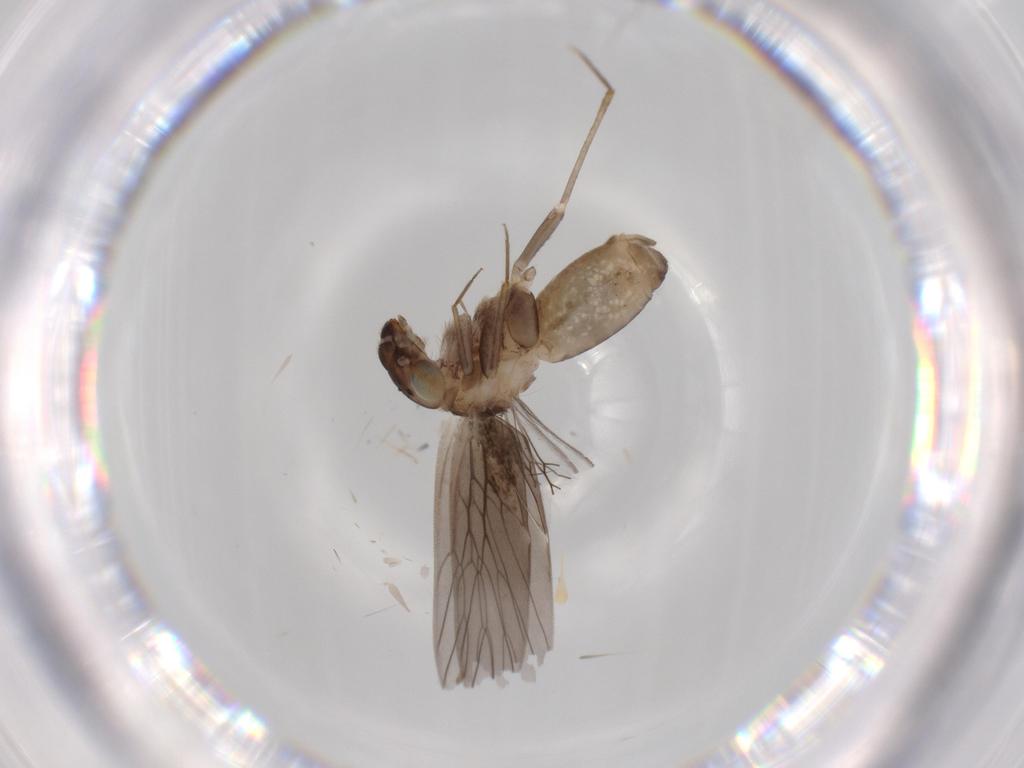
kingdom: Animalia
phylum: Arthropoda
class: Insecta
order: Psocodea
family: Lepidopsocidae
